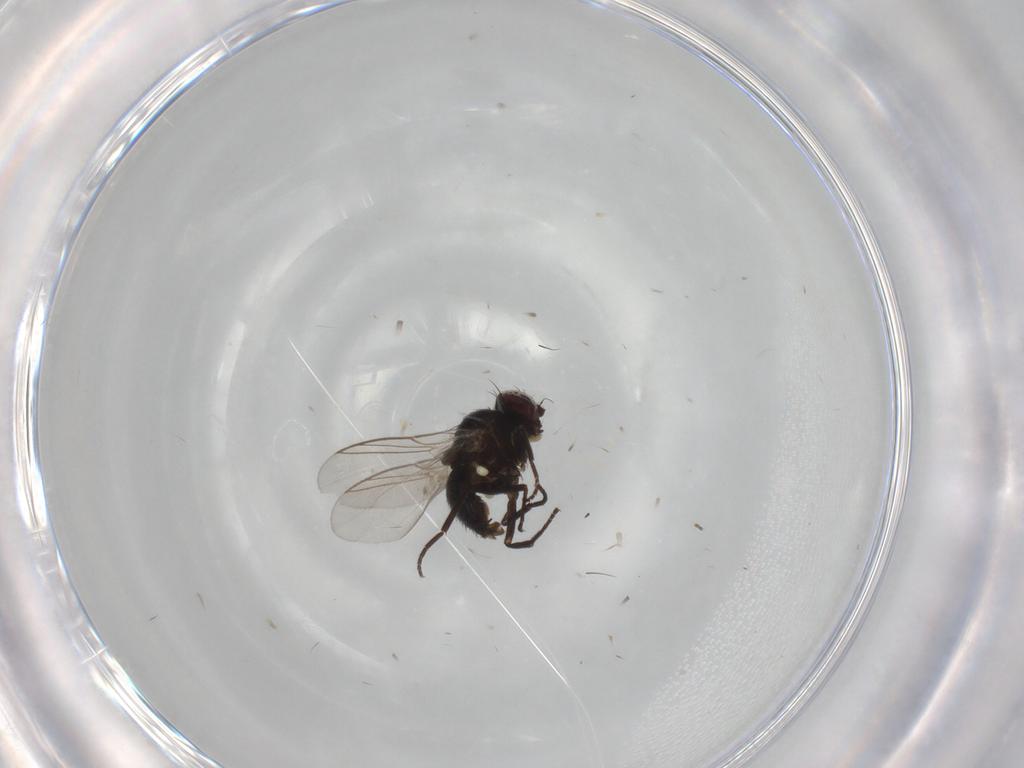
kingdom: Animalia
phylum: Arthropoda
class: Insecta
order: Diptera
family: Phoridae
